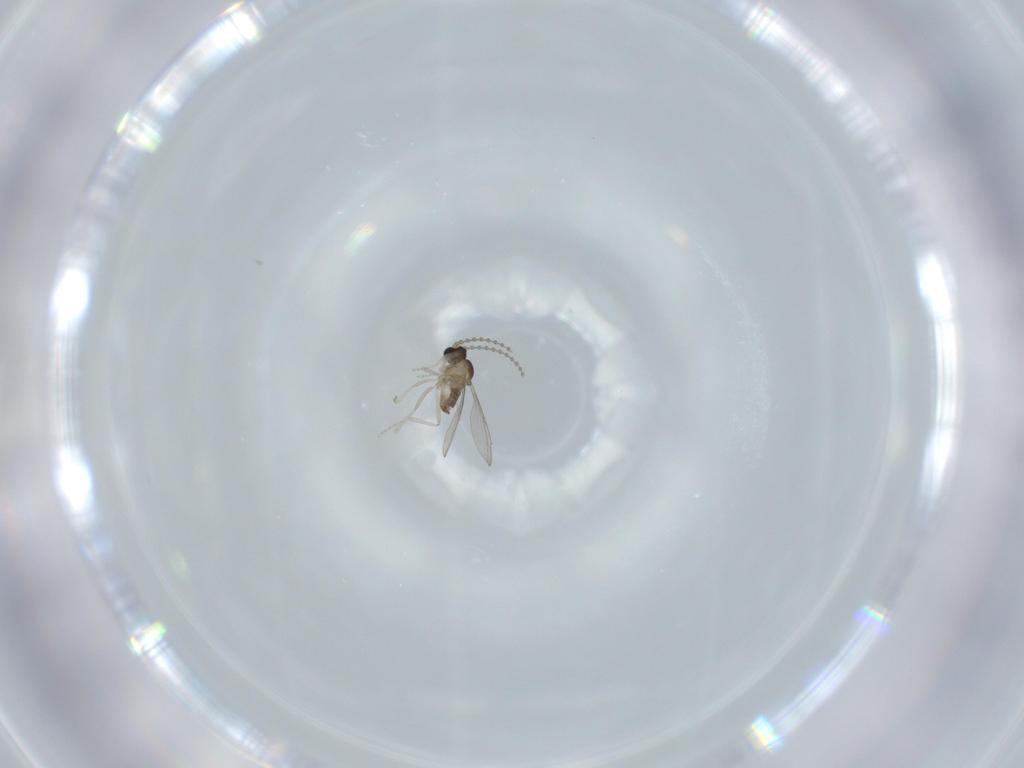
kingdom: Animalia
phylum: Arthropoda
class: Insecta
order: Diptera
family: Cecidomyiidae
